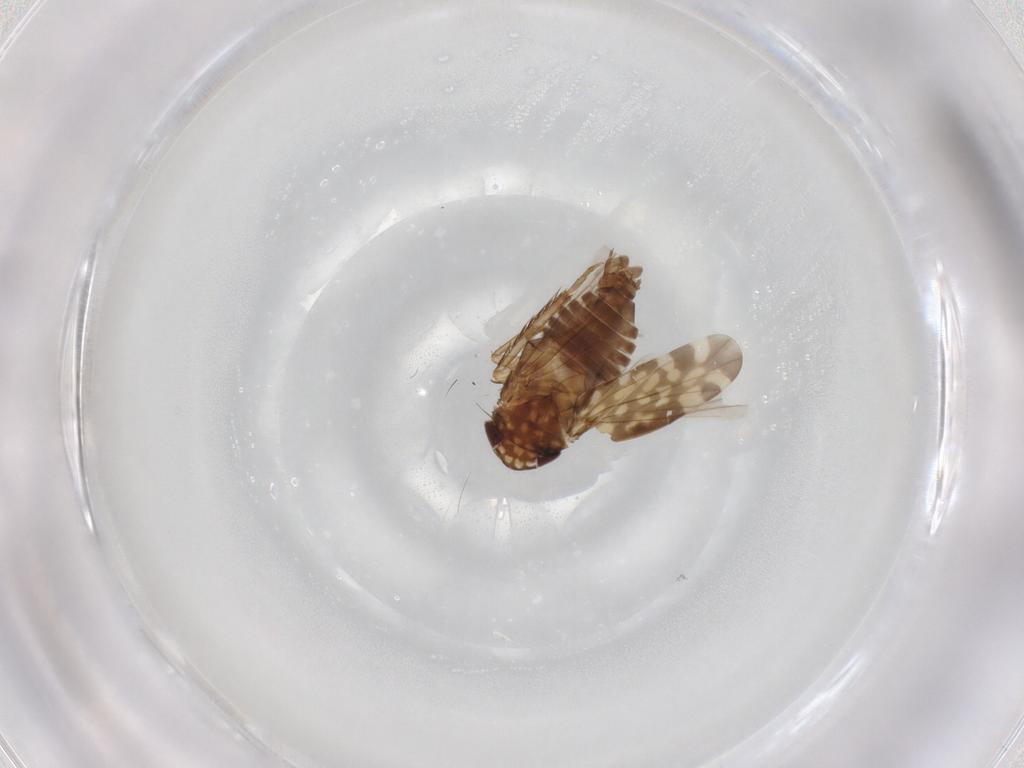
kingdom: Animalia
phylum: Arthropoda
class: Insecta
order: Hemiptera
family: Cicadellidae
